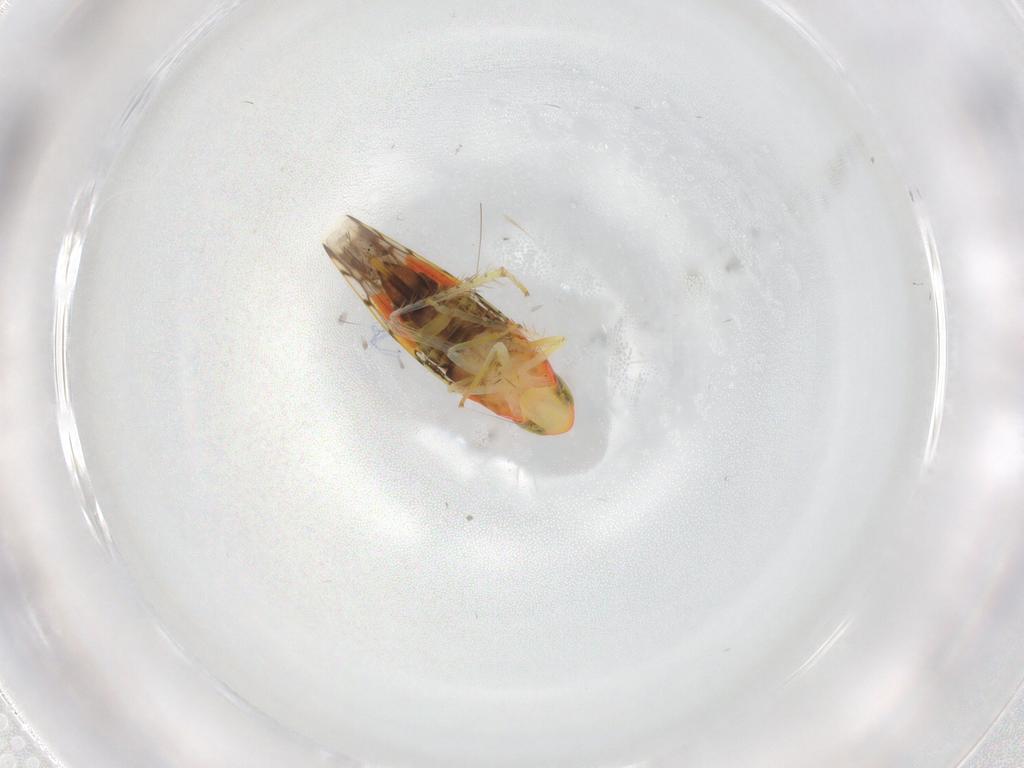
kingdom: Animalia
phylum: Arthropoda
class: Insecta
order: Hemiptera
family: Cicadellidae
